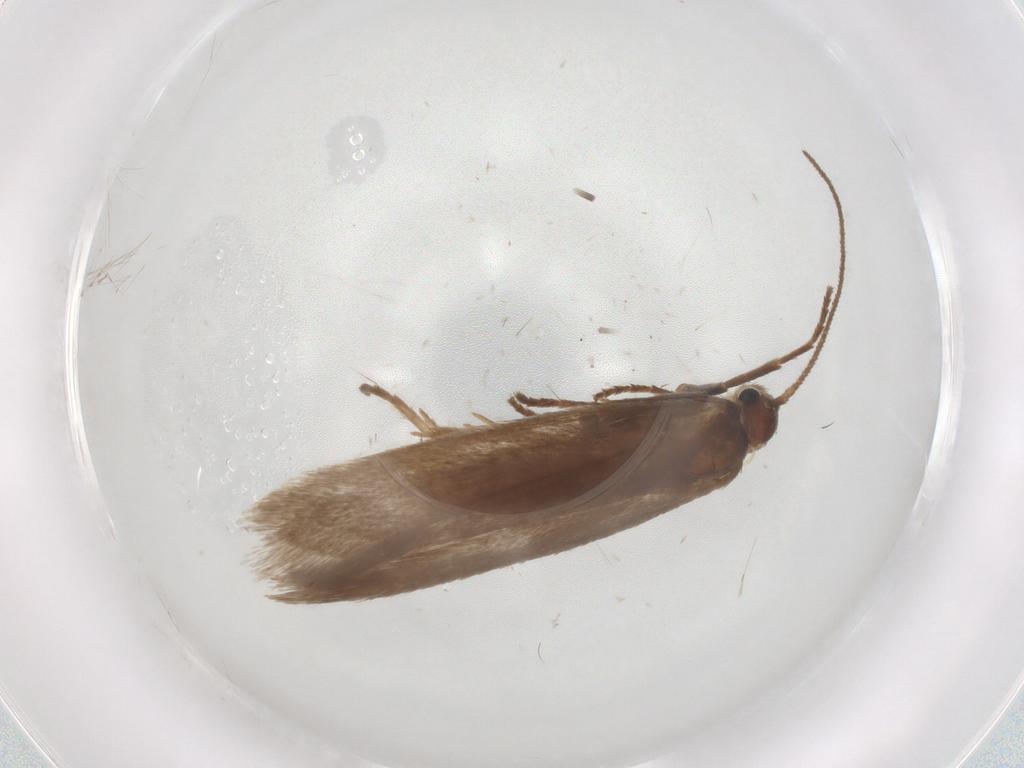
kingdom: Animalia
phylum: Arthropoda
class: Insecta
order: Lepidoptera
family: Limacodidae
